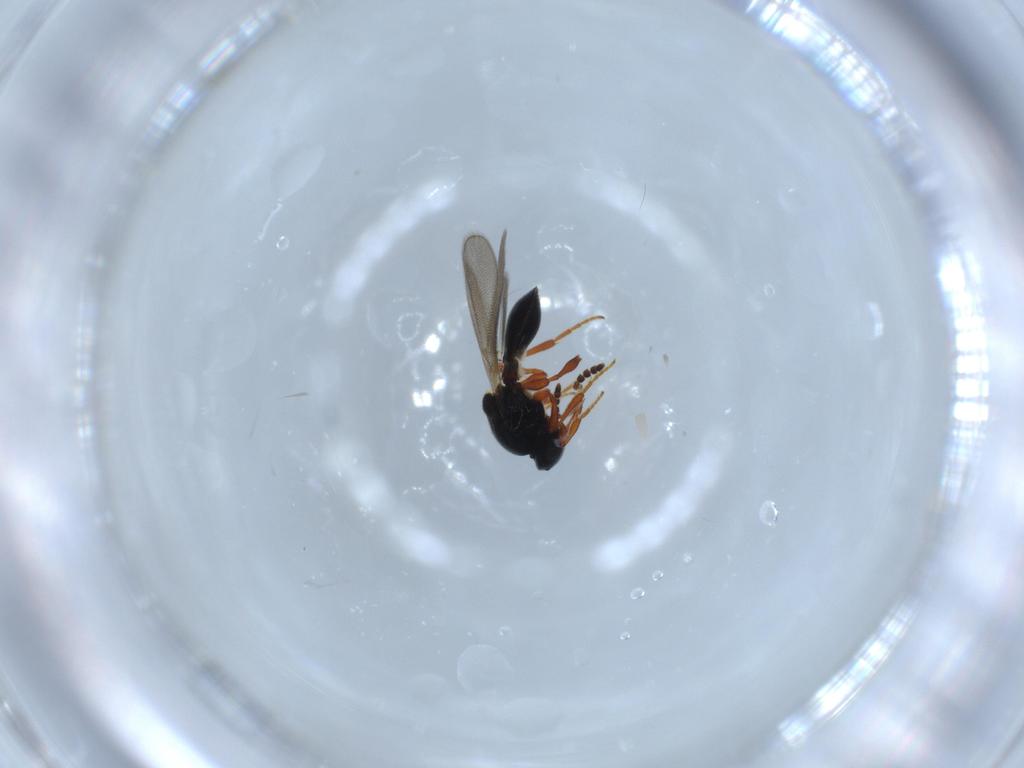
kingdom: Animalia
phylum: Arthropoda
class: Insecta
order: Hymenoptera
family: Platygastridae
